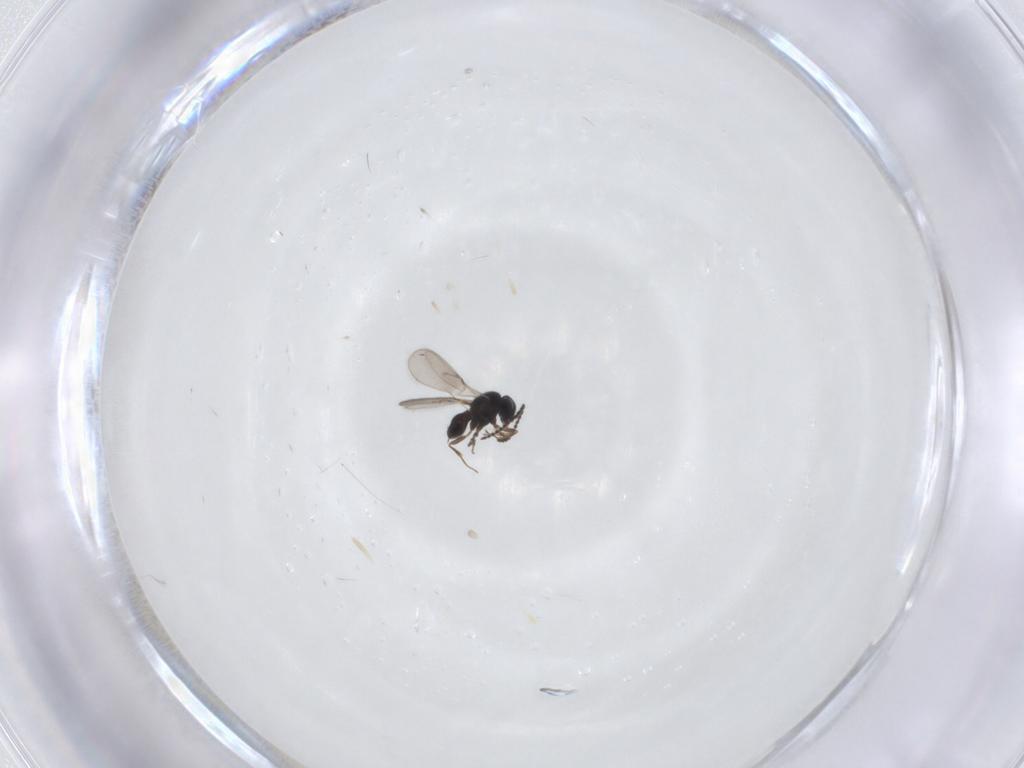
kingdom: Animalia
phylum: Arthropoda
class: Insecta
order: Hymenoptera
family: Scelionidae
